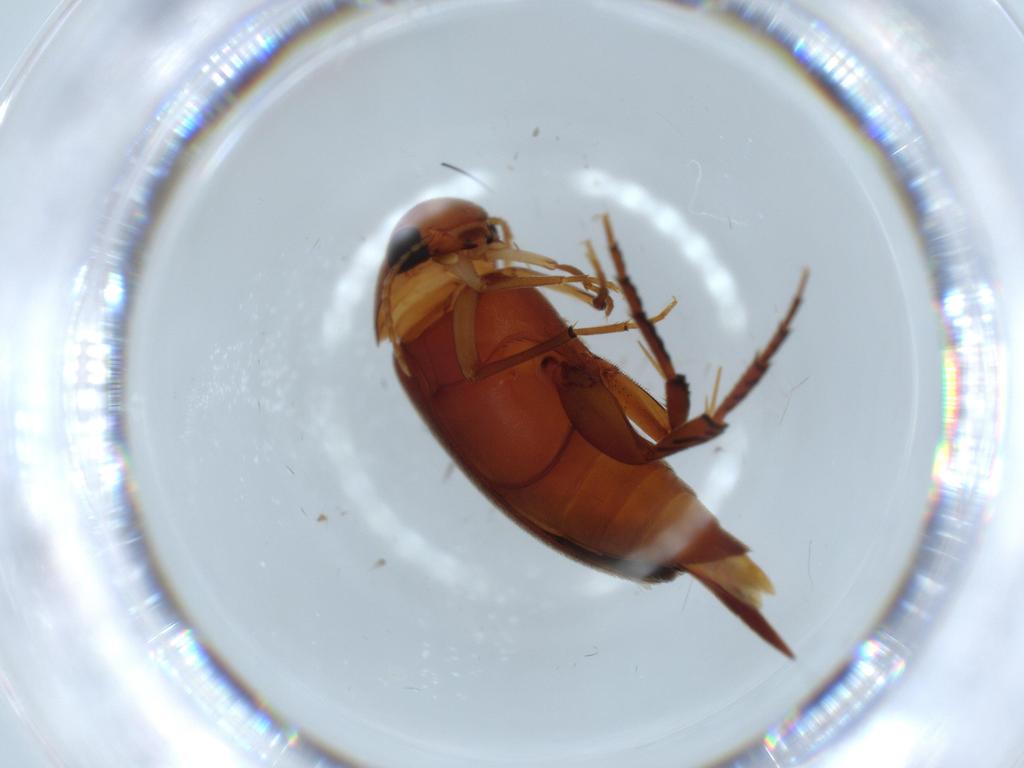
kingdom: Animalia
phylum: Arthropoda
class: Insecta
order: Coleoptera
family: Mordellidae
